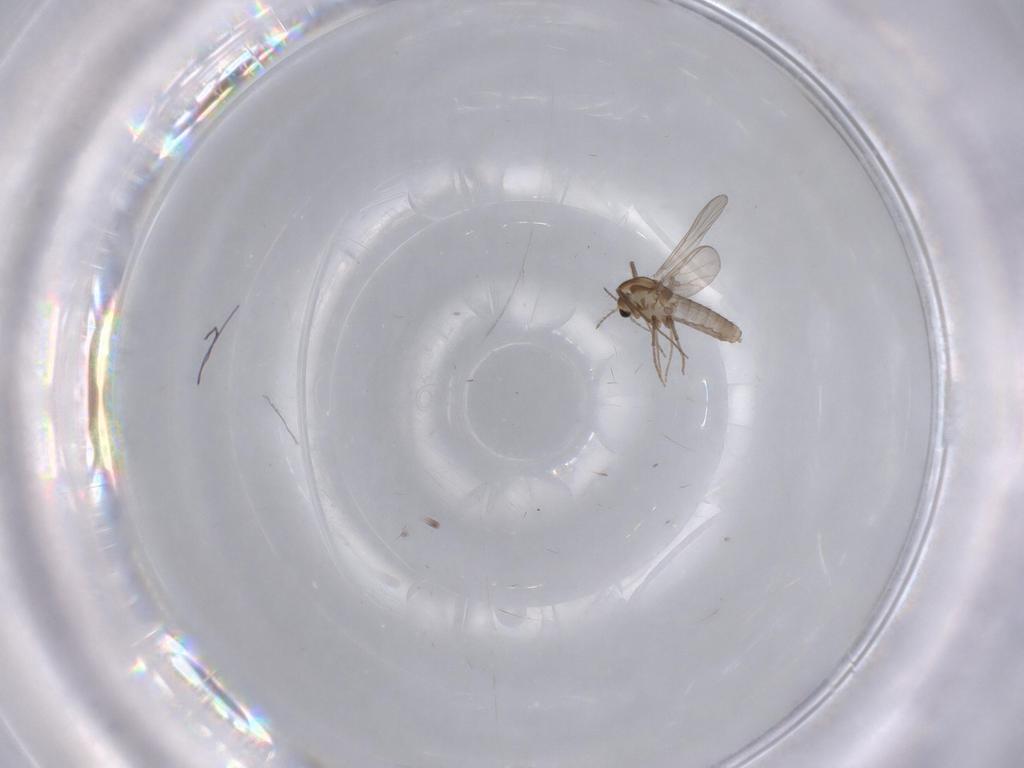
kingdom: Animalia
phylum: Arthropoda
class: Insecta
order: Diptera
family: Chironomidae
